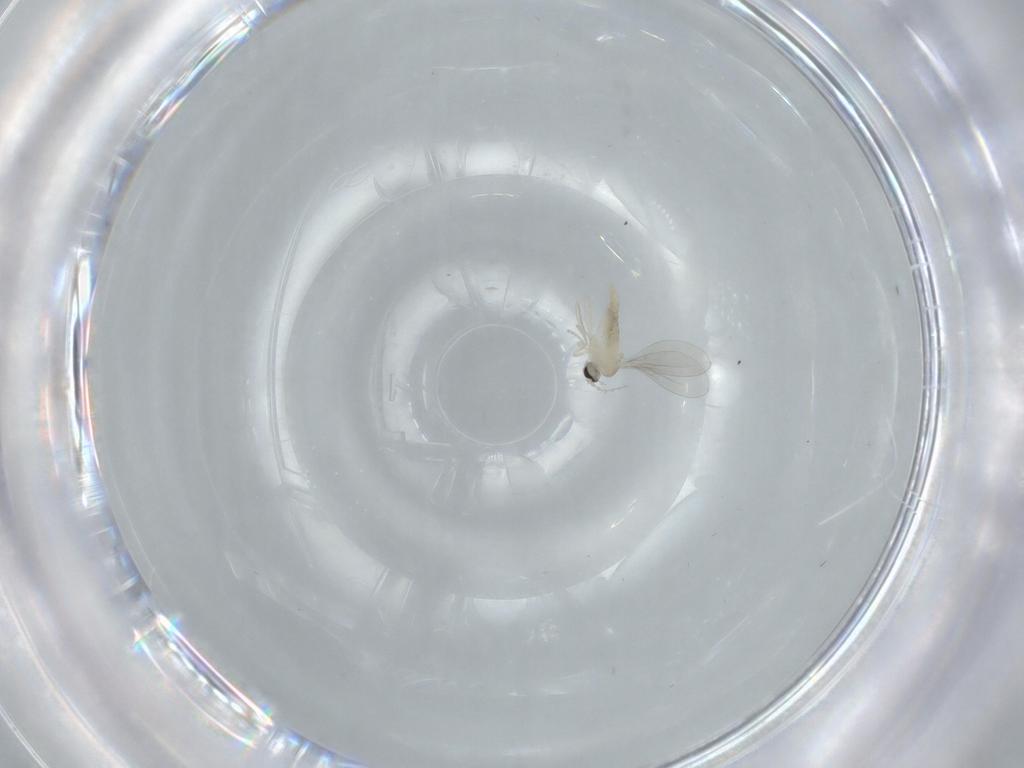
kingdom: Animalia
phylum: Arthropoda
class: Insecta
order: Diptera
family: Cecidomyiidae
